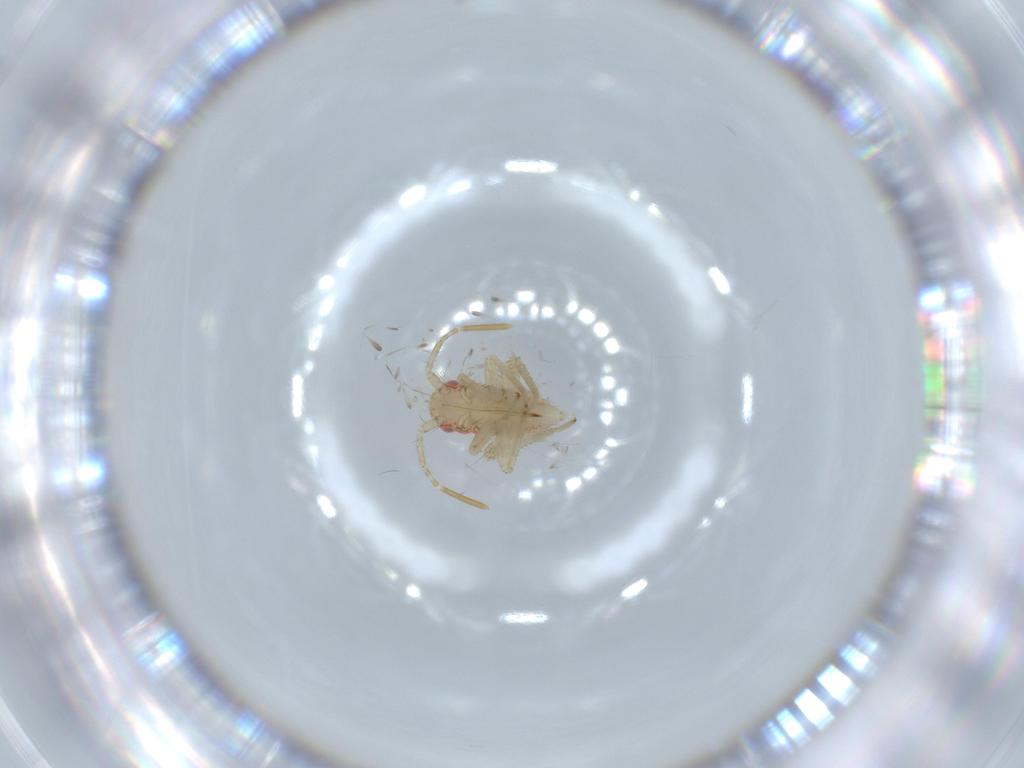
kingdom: Animalia
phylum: Arthropoda
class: Insecta
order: Hemiptera
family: Miridae
